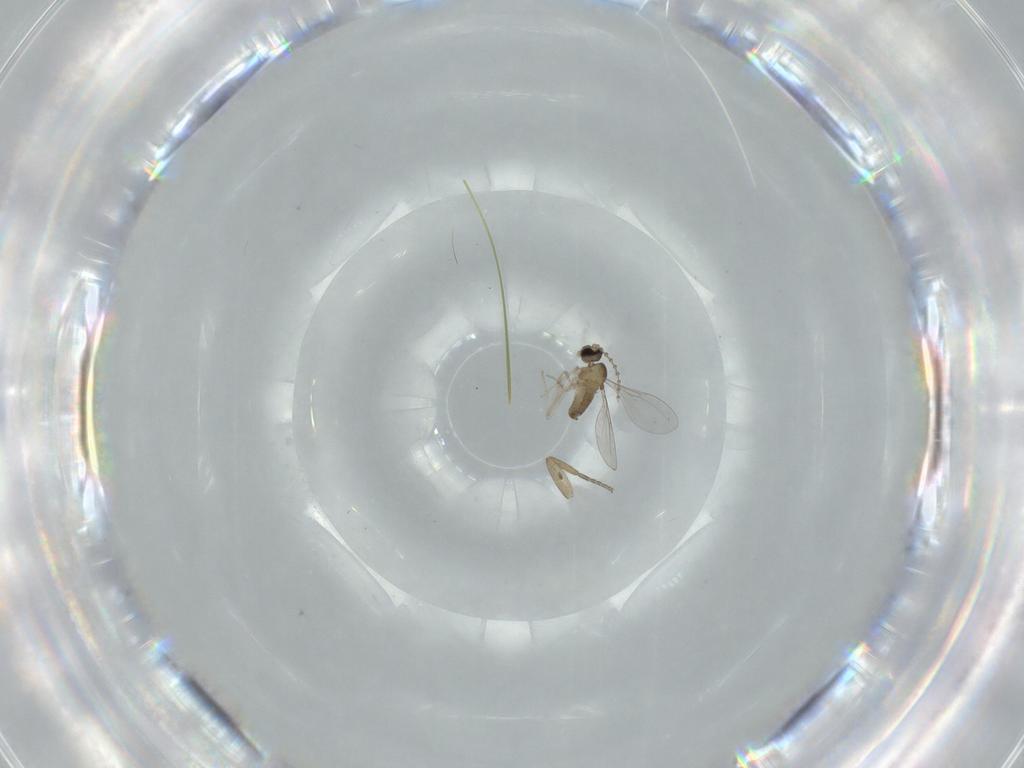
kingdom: Animalia
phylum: Arthropoda
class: Insecta
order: Diptera
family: Cecidomyiidae
